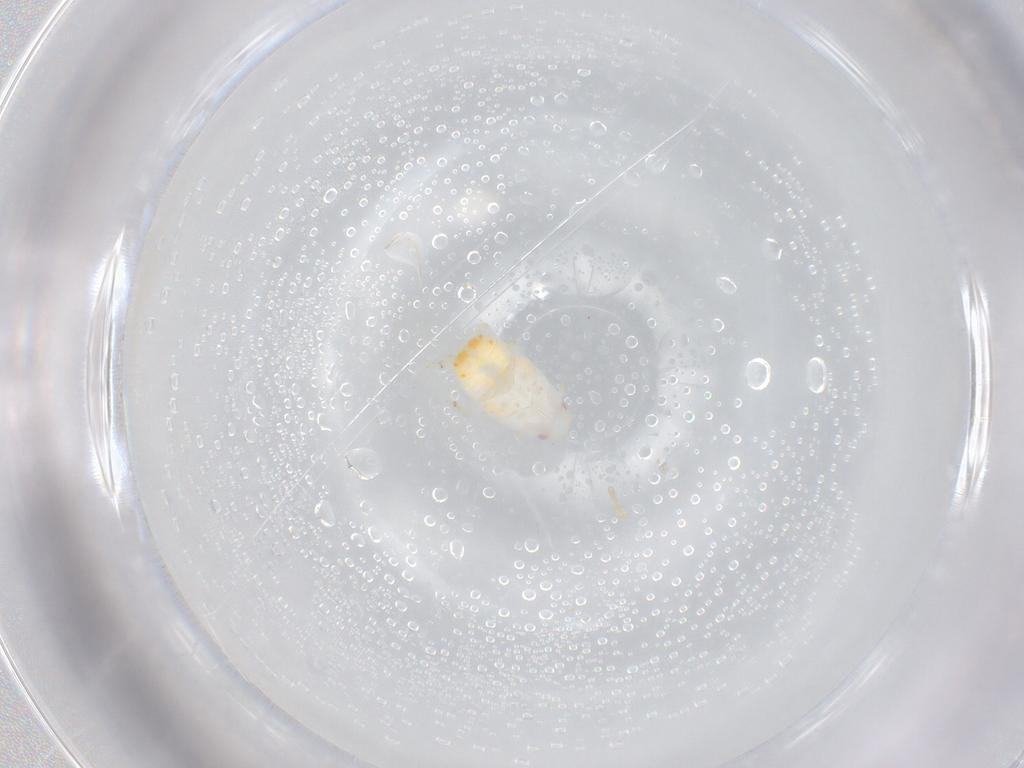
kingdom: Animalia
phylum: Arthropoda
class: Insecta
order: Hemiptera
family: Flatidae
